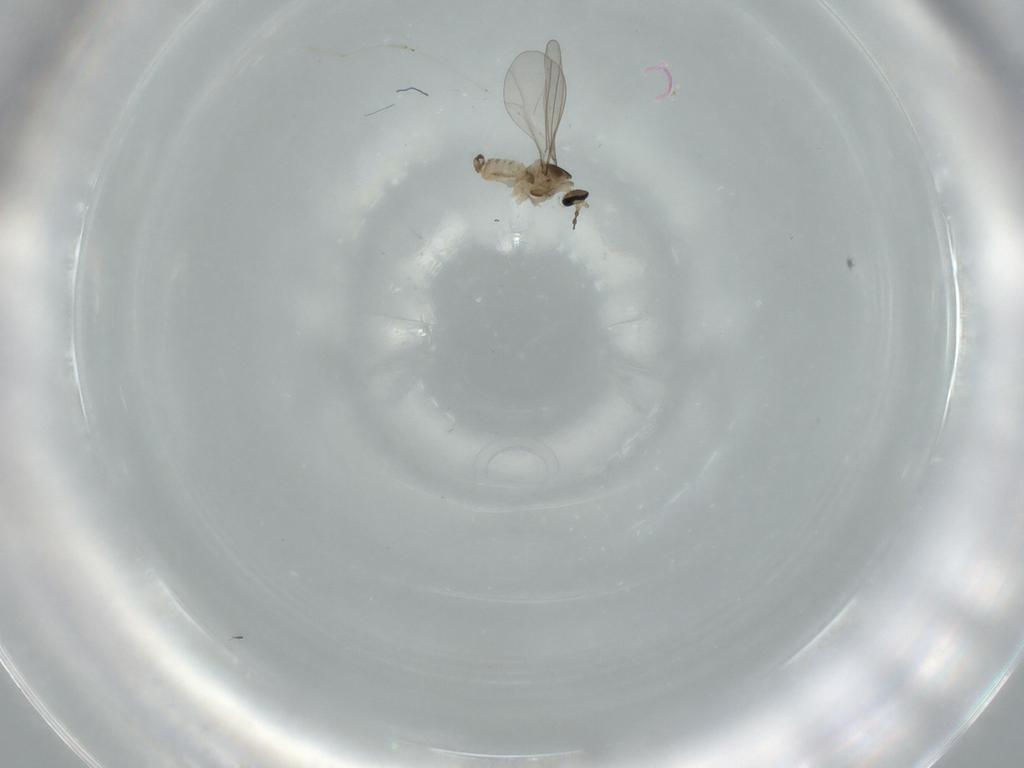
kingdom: Animalia
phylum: Arthropoda
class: Insecta
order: Diptera
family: Cecidomyiidae
